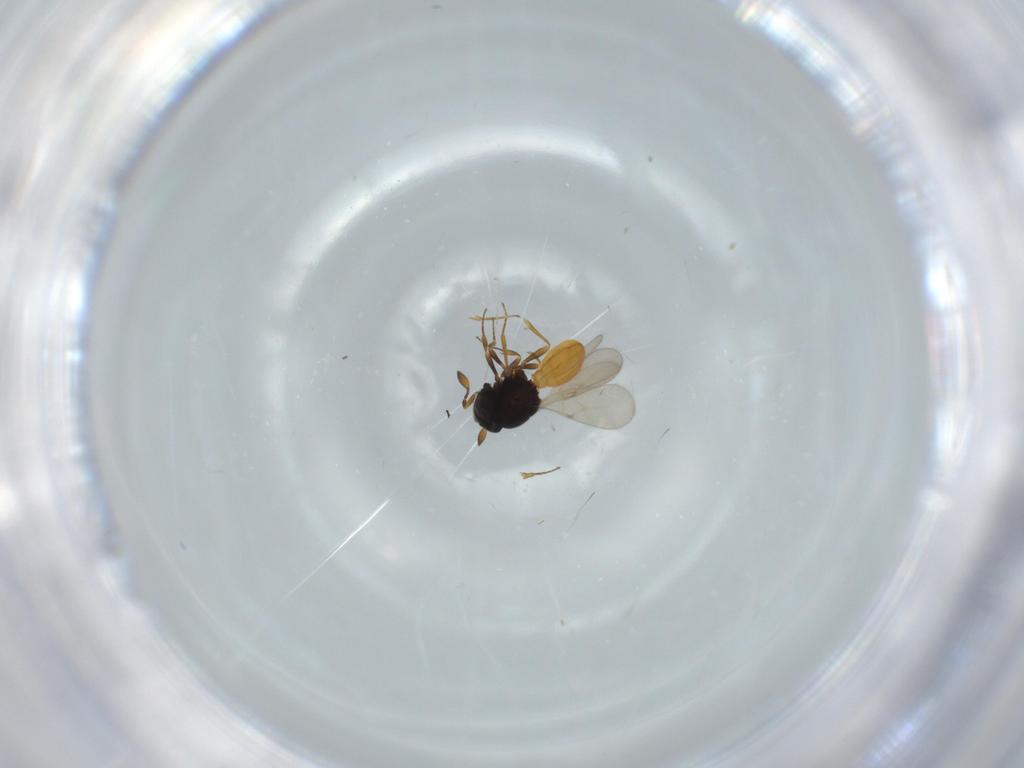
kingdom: Animalia
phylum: Arthropoda
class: Insecta
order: Hymenoptera
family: Scelionidae
